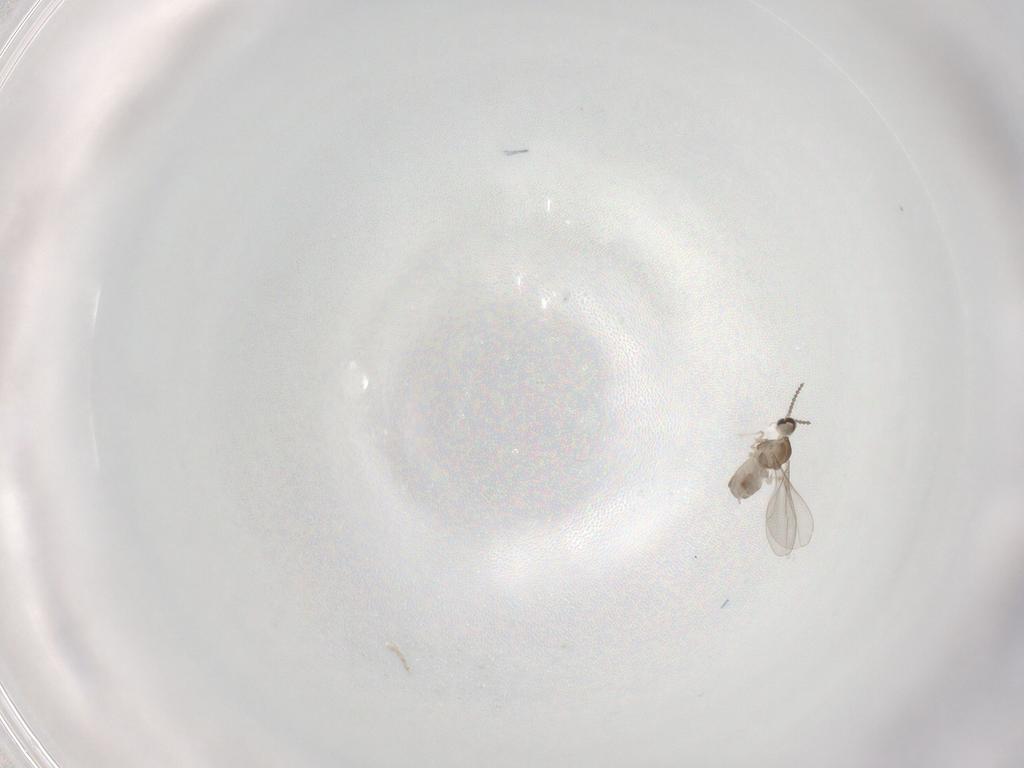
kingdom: Animalia
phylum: Arthropoda
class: Insecta
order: Diptera
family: Cecidomyiidae
